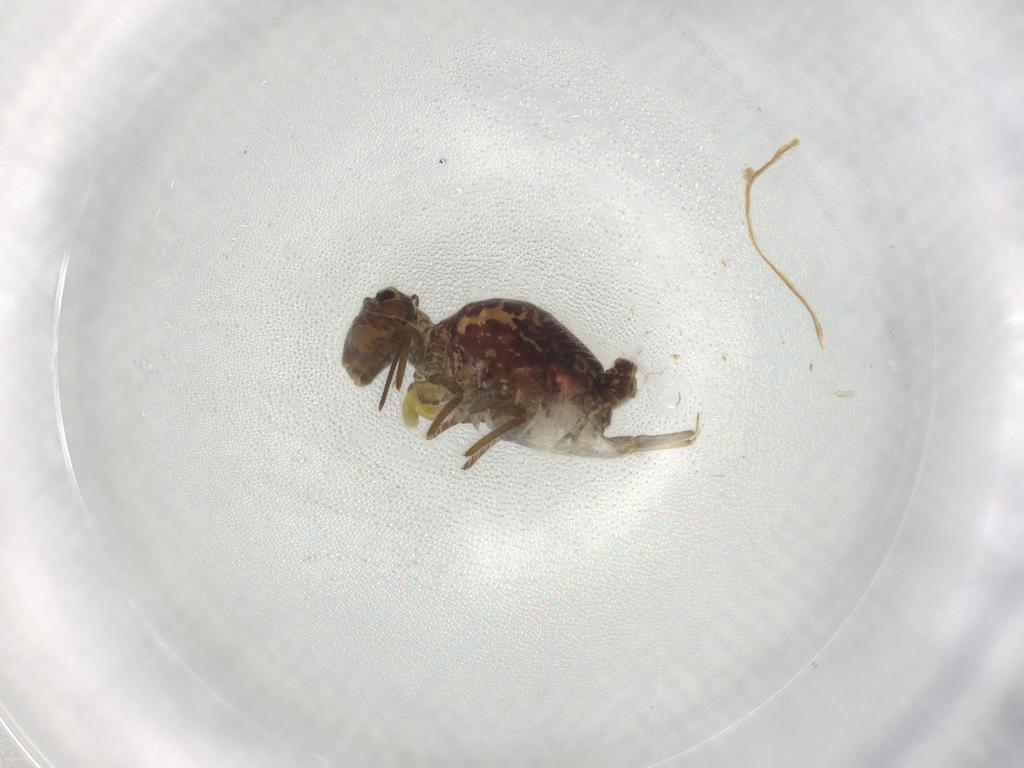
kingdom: Animalia
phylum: Arthropoda
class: Collembola
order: Symphypleona
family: Sminthuridae
